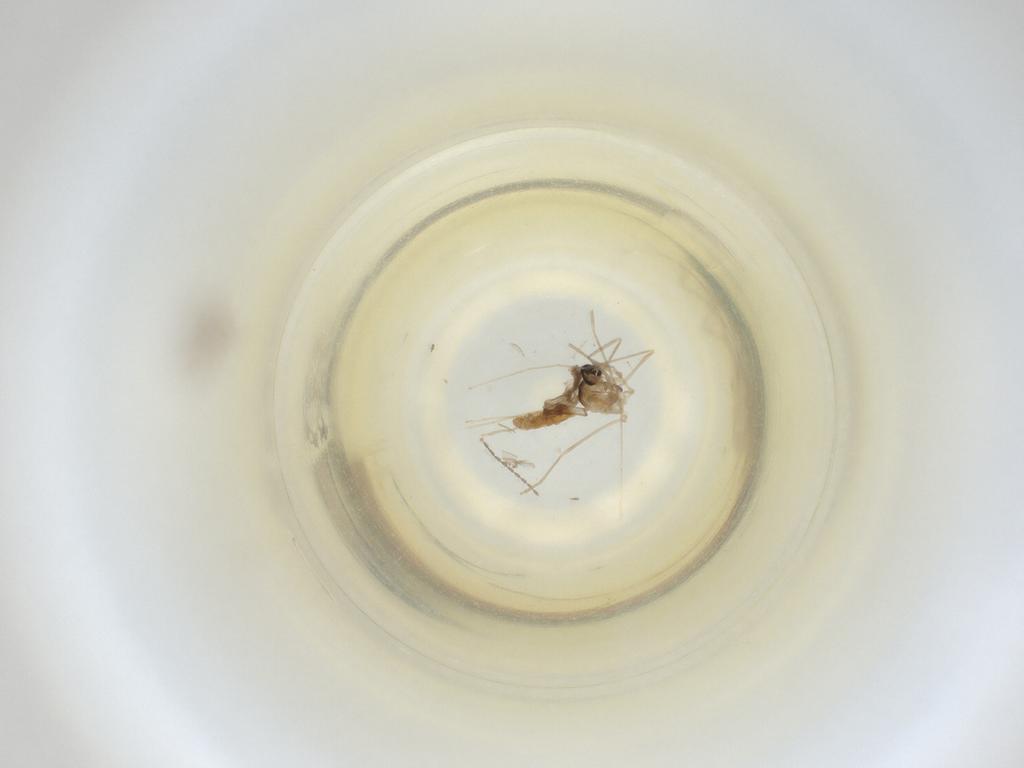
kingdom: Animalia
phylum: Arthropoda
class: Insecta
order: Diptera
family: Cecidomyiidae
